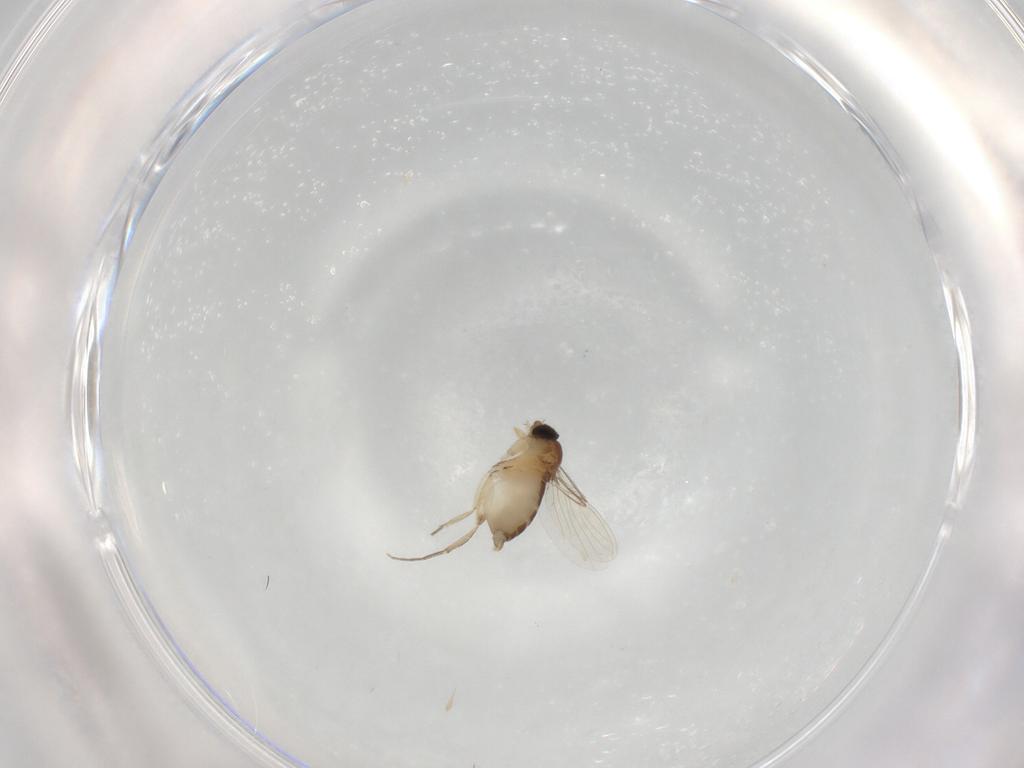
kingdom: Animalia
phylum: Arthropoda
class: Insecta
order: Diptera
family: Phoridae
